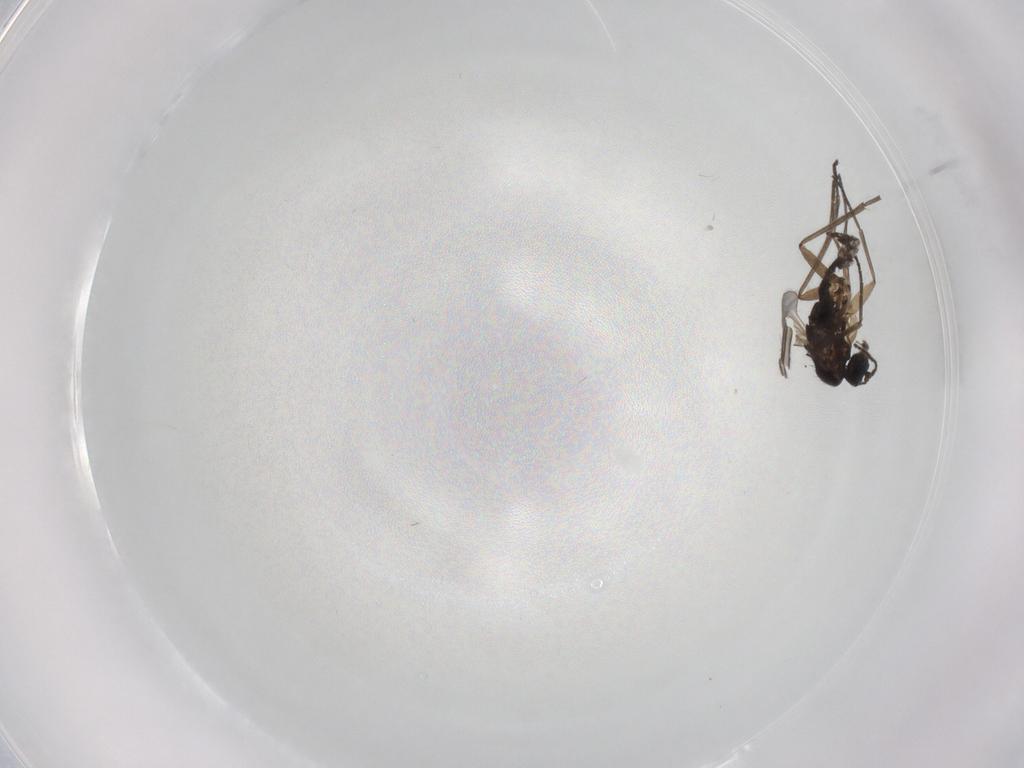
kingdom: Animalia
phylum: Arthropoda
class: Insecta
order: Diptera
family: Sciaridae
